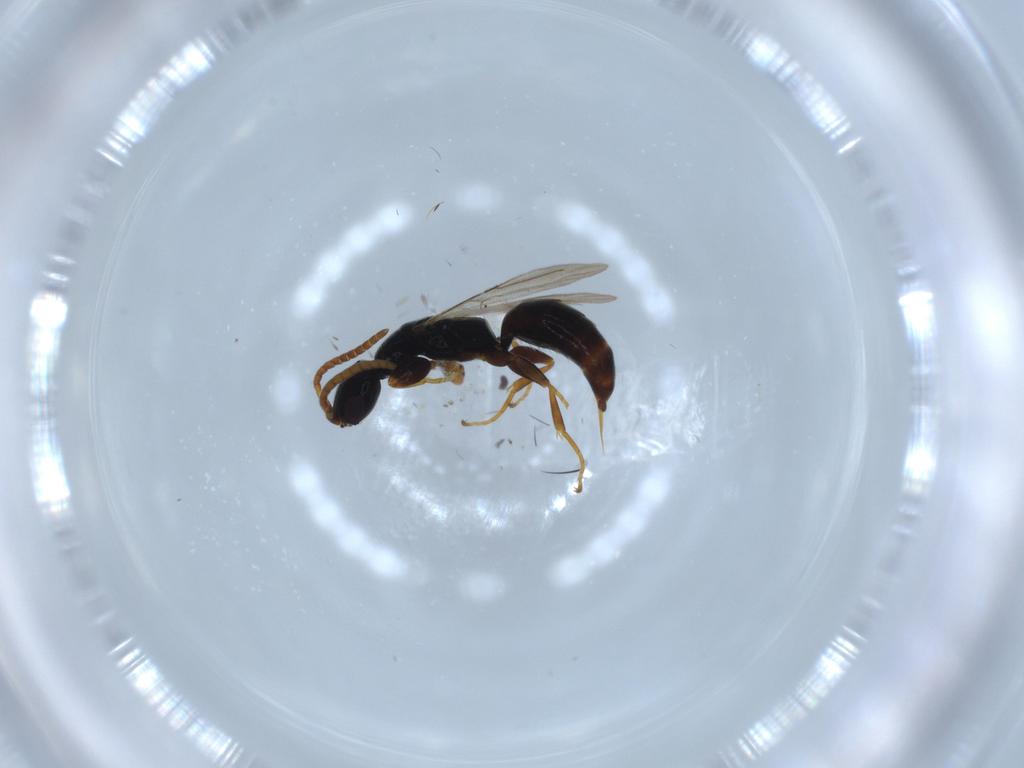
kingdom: Animalia
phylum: Arthropoda
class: Insecta
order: Hymenoptera
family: Bethylidae
